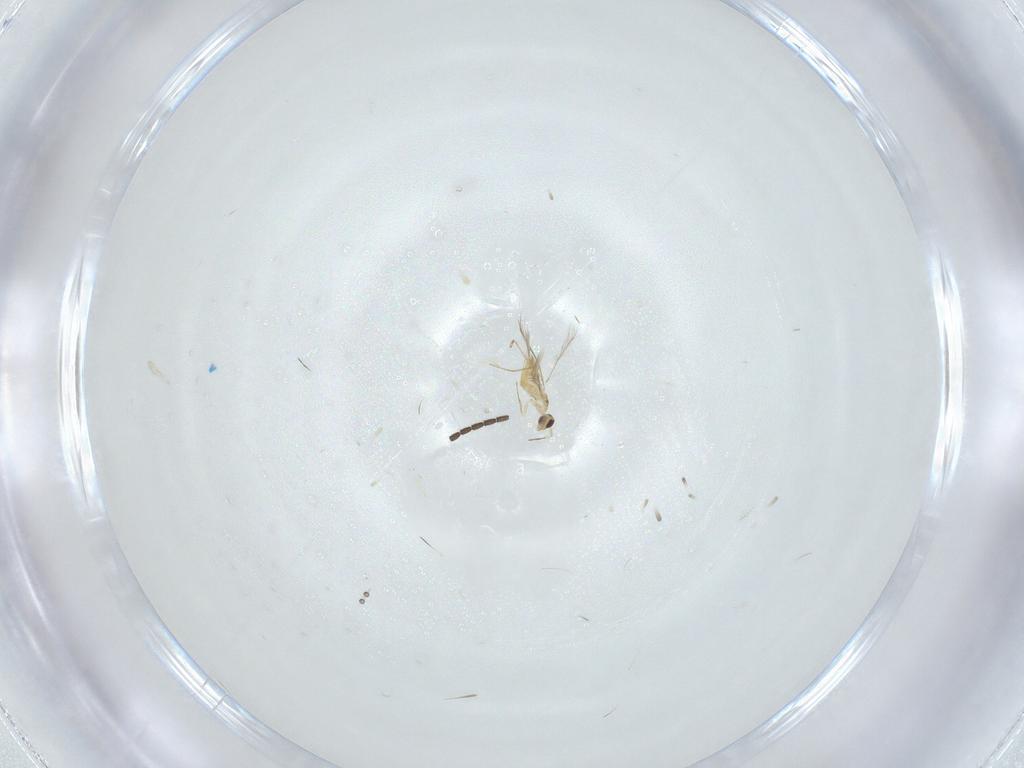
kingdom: Animalia
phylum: Arthropoda
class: Insecta
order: Hymenoptera
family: Braconidae
